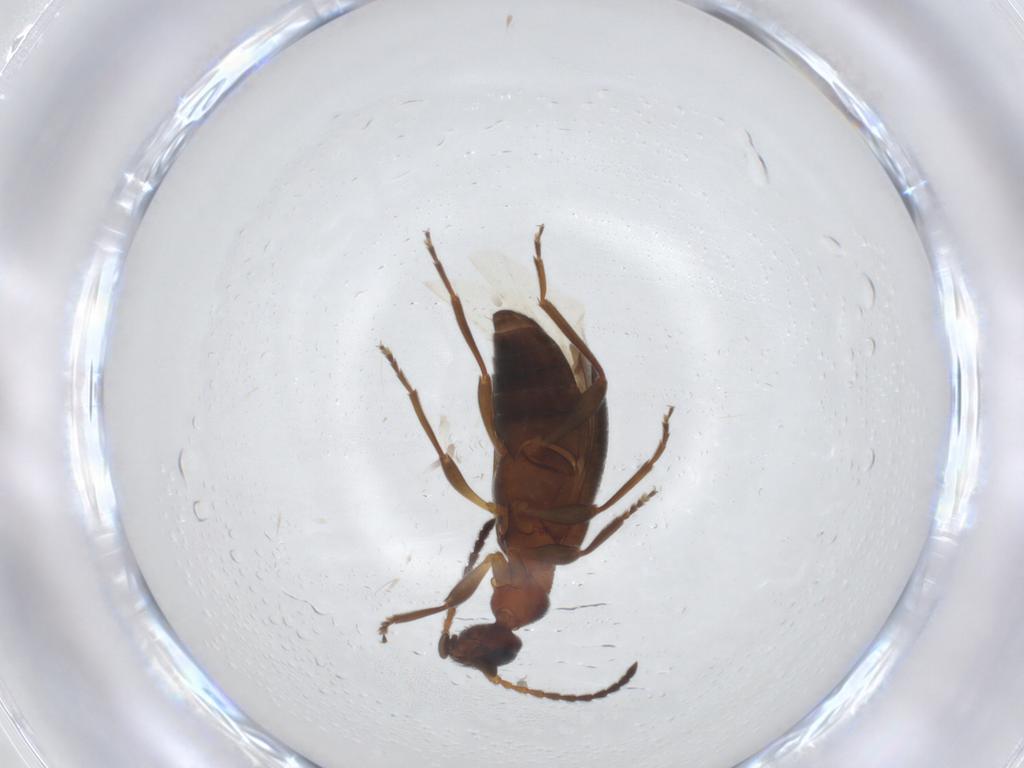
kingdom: Animalia
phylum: Arthropoda
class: Insecta
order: Coleoptera
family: Anthicidae
